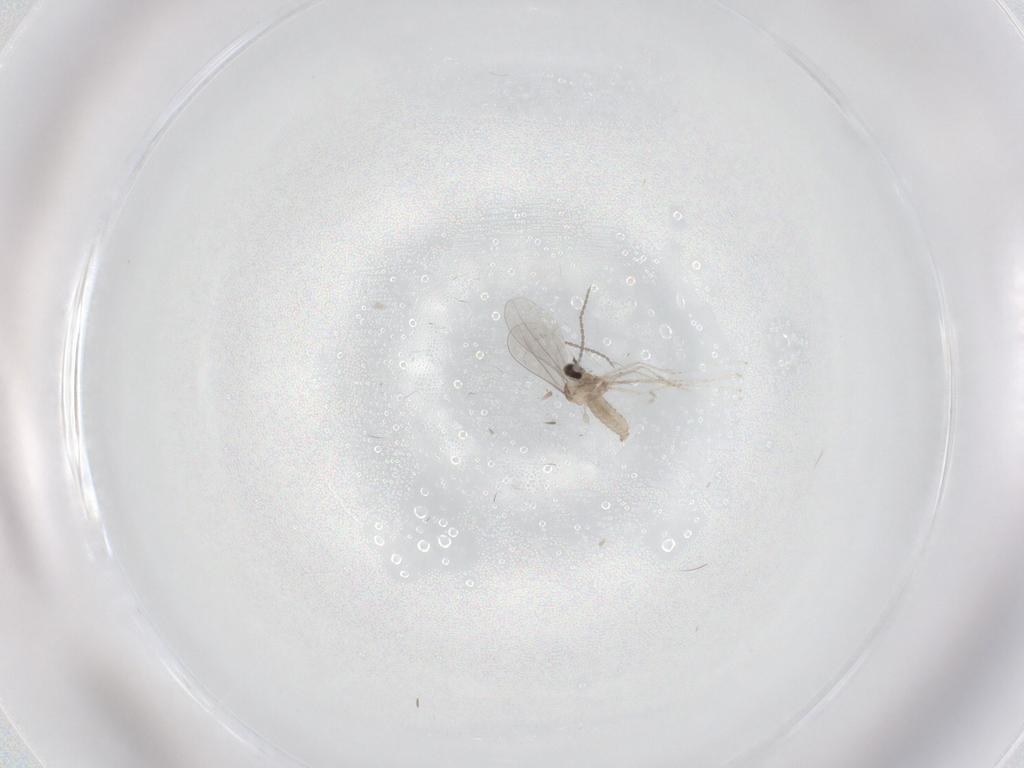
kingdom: Animalia
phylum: Arthropoda
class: Insecta
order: Diptera
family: Cecidomyiidae
